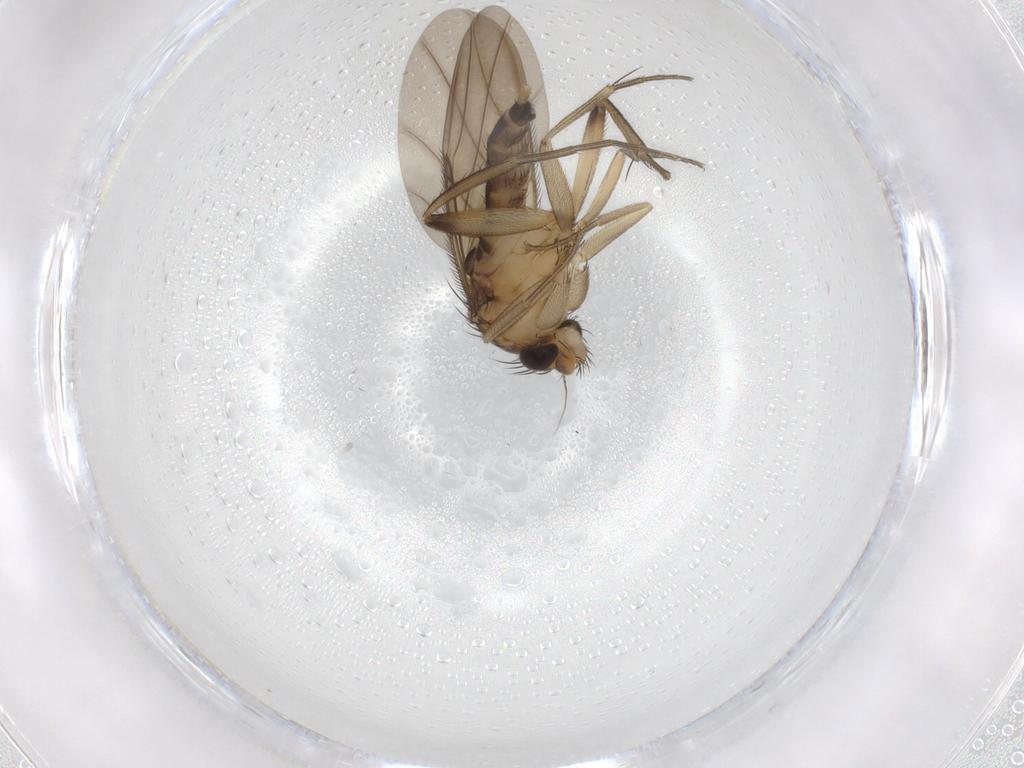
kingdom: Animalia
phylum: Arthropoda
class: Insecta
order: Diptera
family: Phoridae
